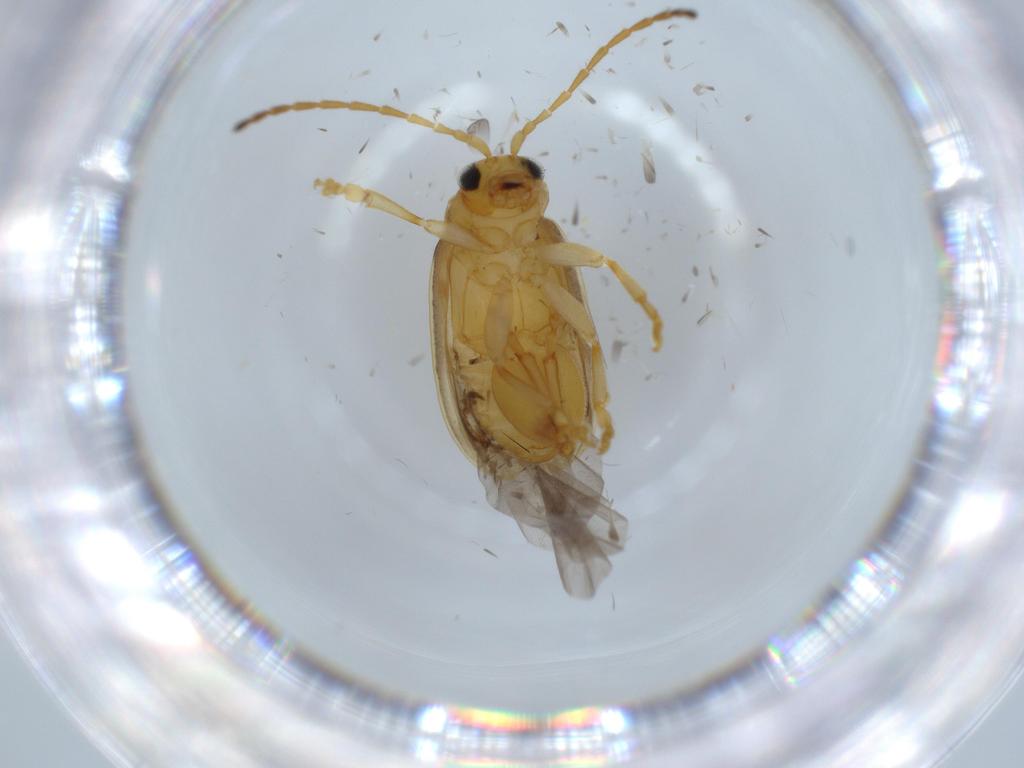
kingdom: Animalia
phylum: Arthropoda
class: Insecta
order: Coleoptera
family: Chrysomelidae
